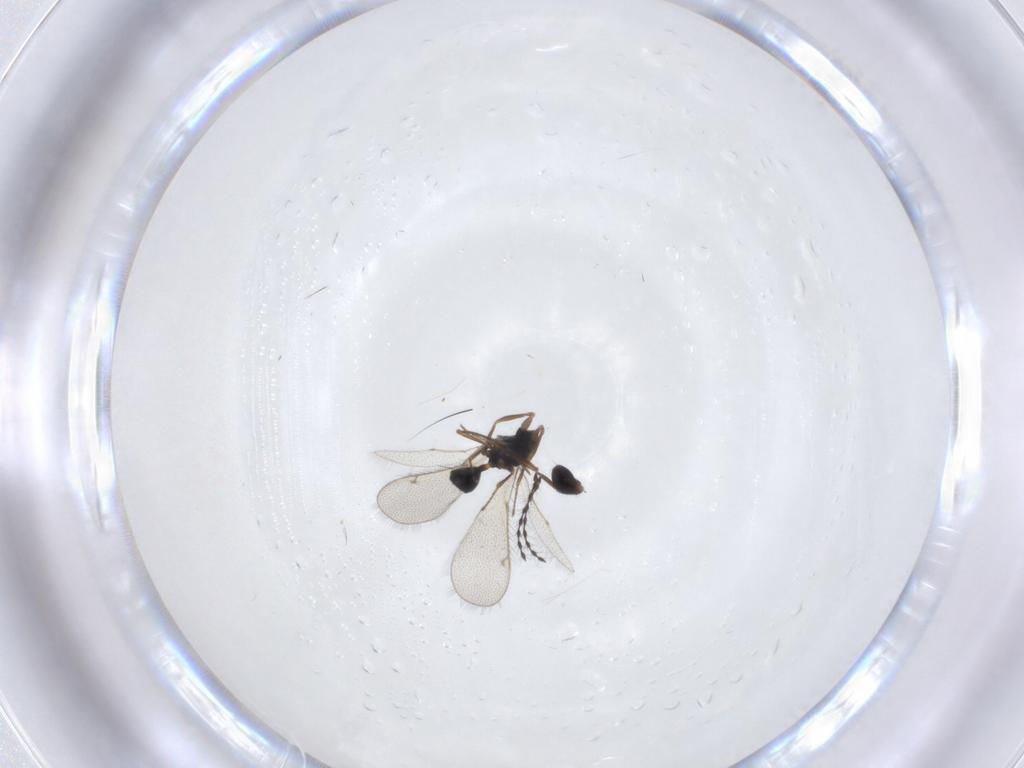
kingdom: Animalia
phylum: Arthropoda
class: Insecta
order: Hymenoptera
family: Diparidae
